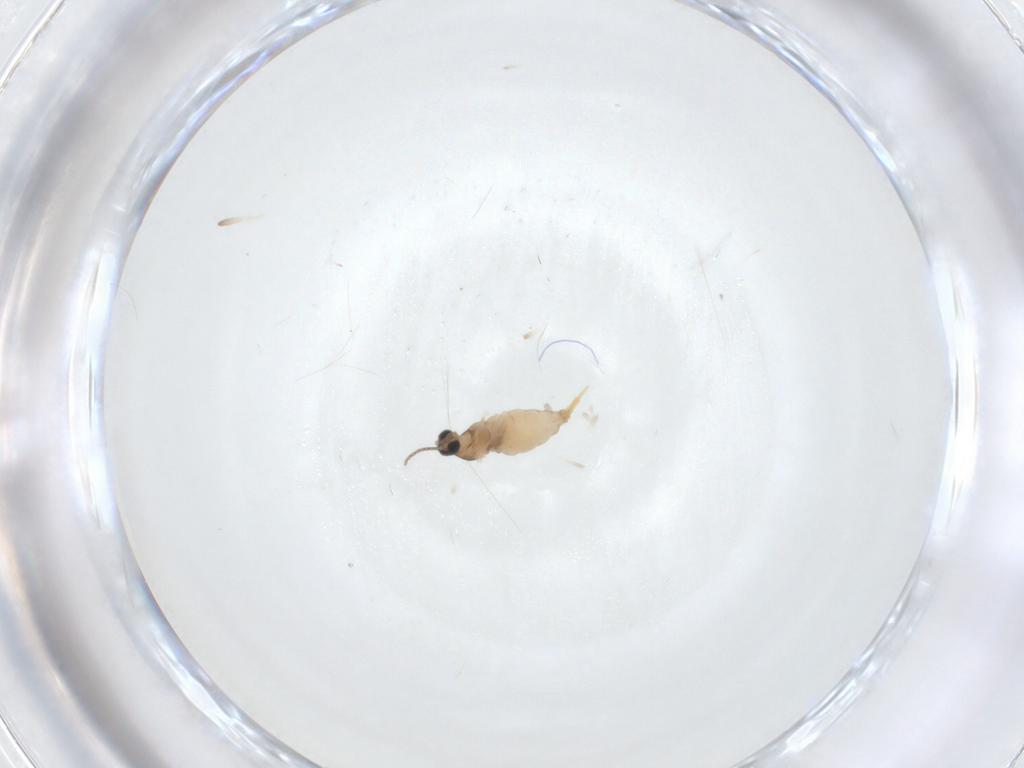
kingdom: Animalia
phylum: Arthropoda
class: Insecta
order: Diptera
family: Cecidomyiidae
